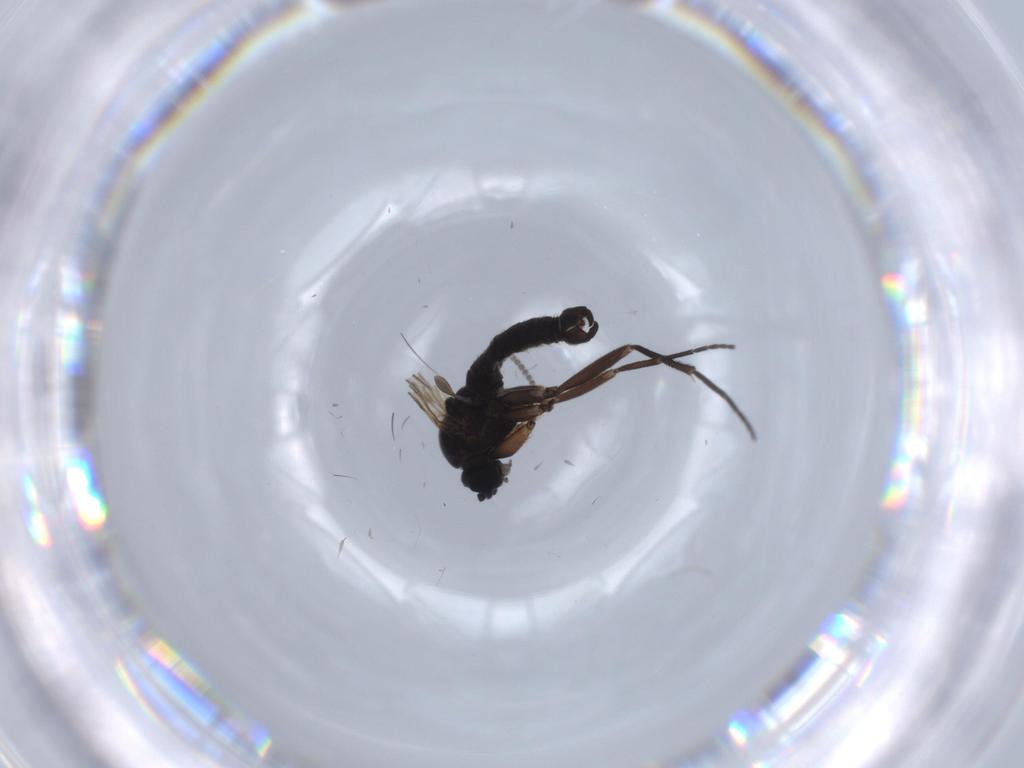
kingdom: Animalia
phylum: Arthropoda
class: Insecta
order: Diptera
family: Sciaridae
